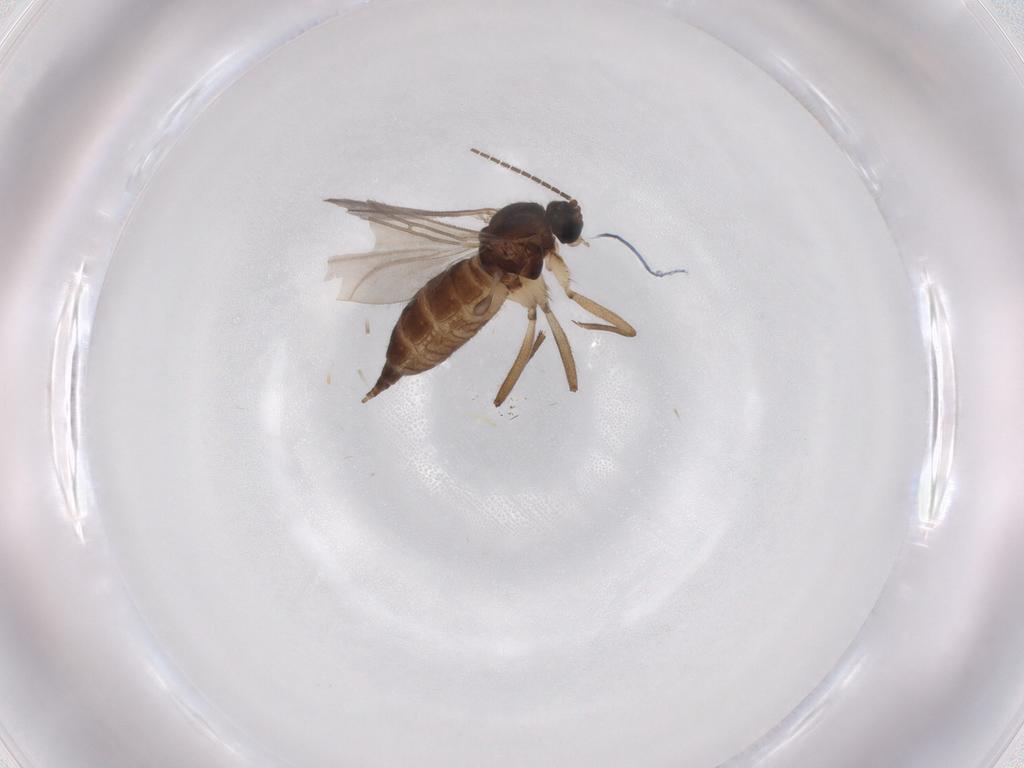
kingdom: Animalia
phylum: Arthropoda
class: Insecta
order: Diptera
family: Sciaridae
